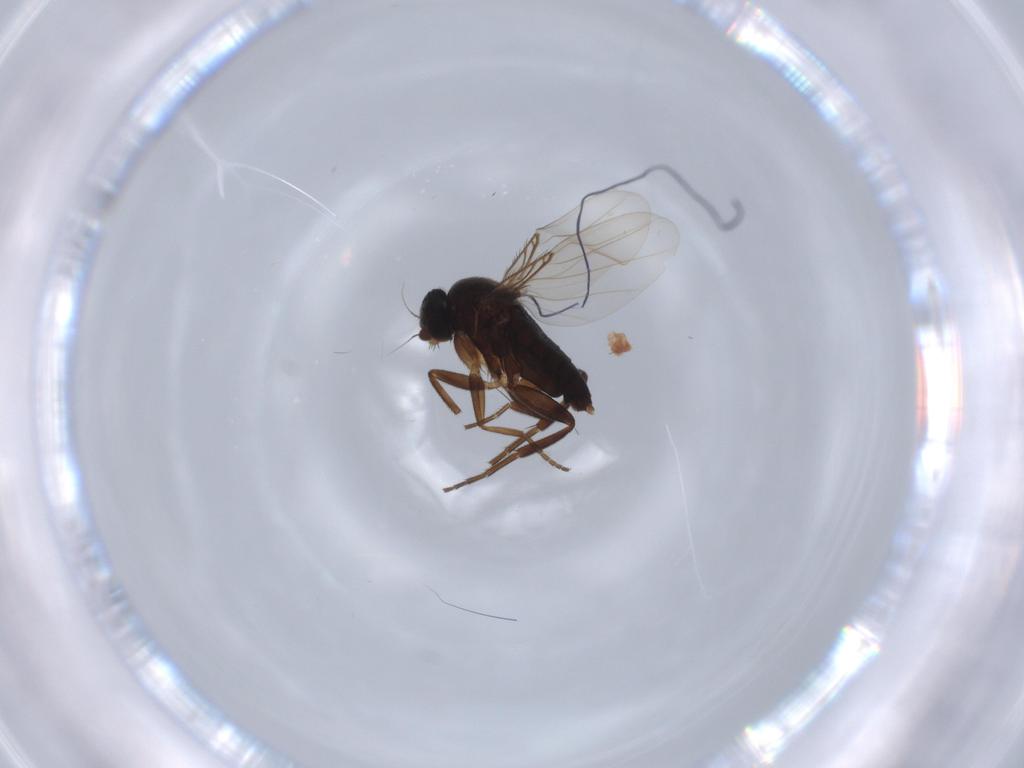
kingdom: Animalia
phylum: Arthropoda
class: Insecta
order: Diptera
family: Phoridae
